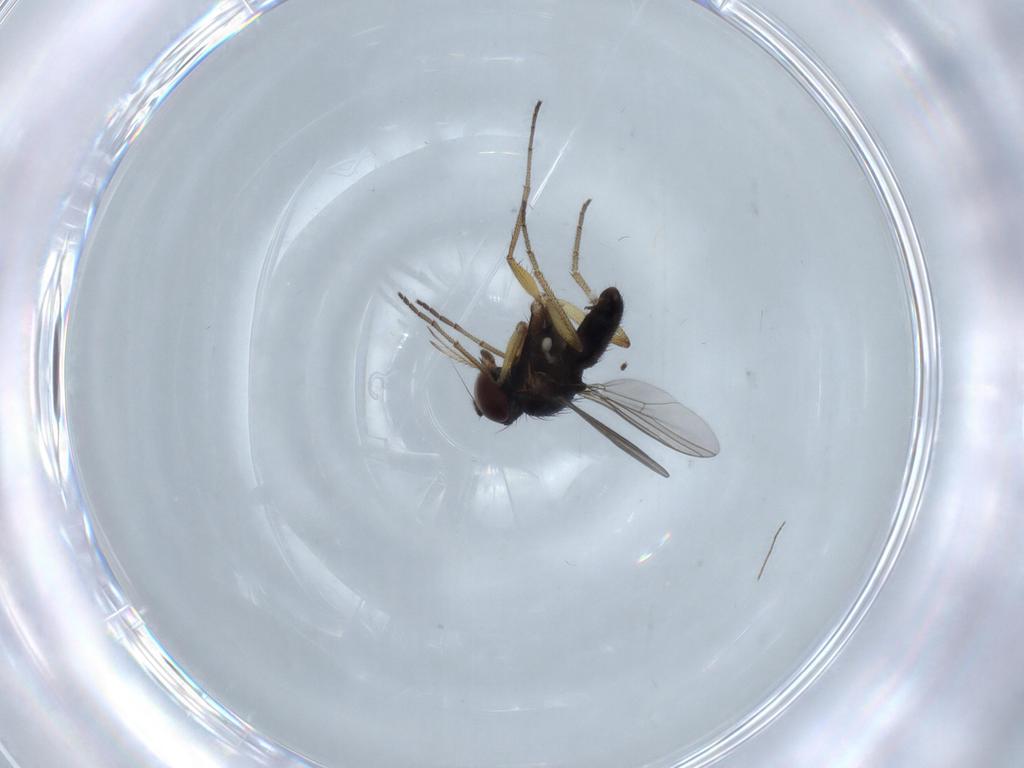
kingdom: Animalia
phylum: Arthropoda
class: Insecta
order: Diptera
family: Dolichopodidae
